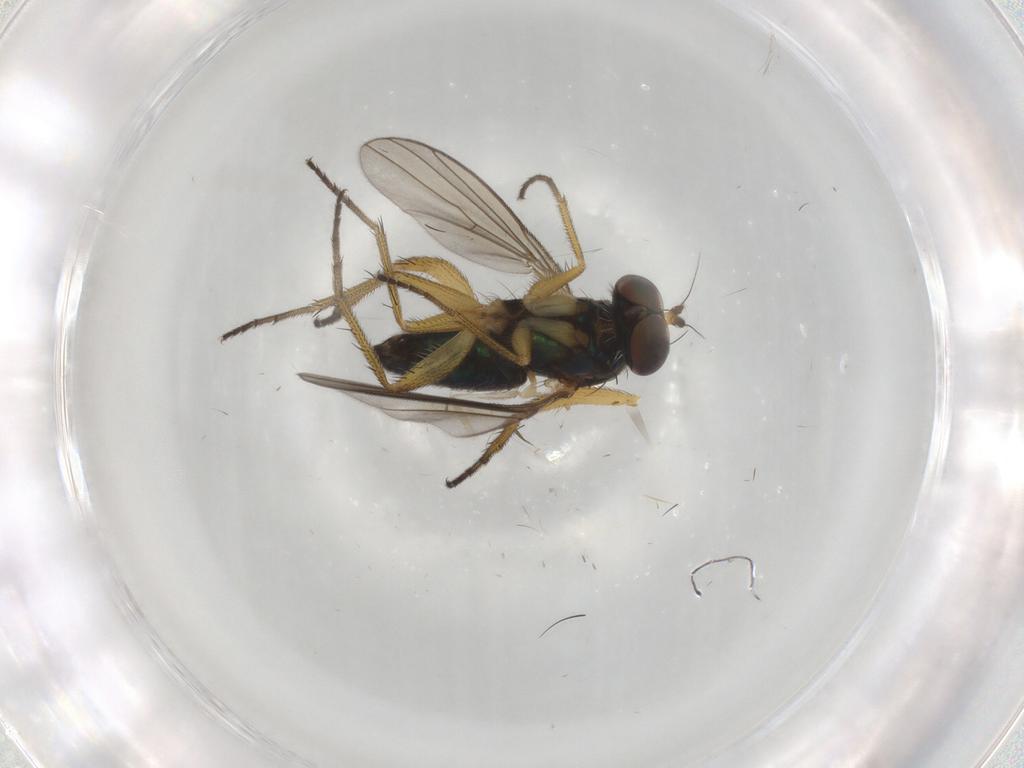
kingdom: Animalia
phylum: Arthropoda
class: Insecta
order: Diptera
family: Dolichopodidae
